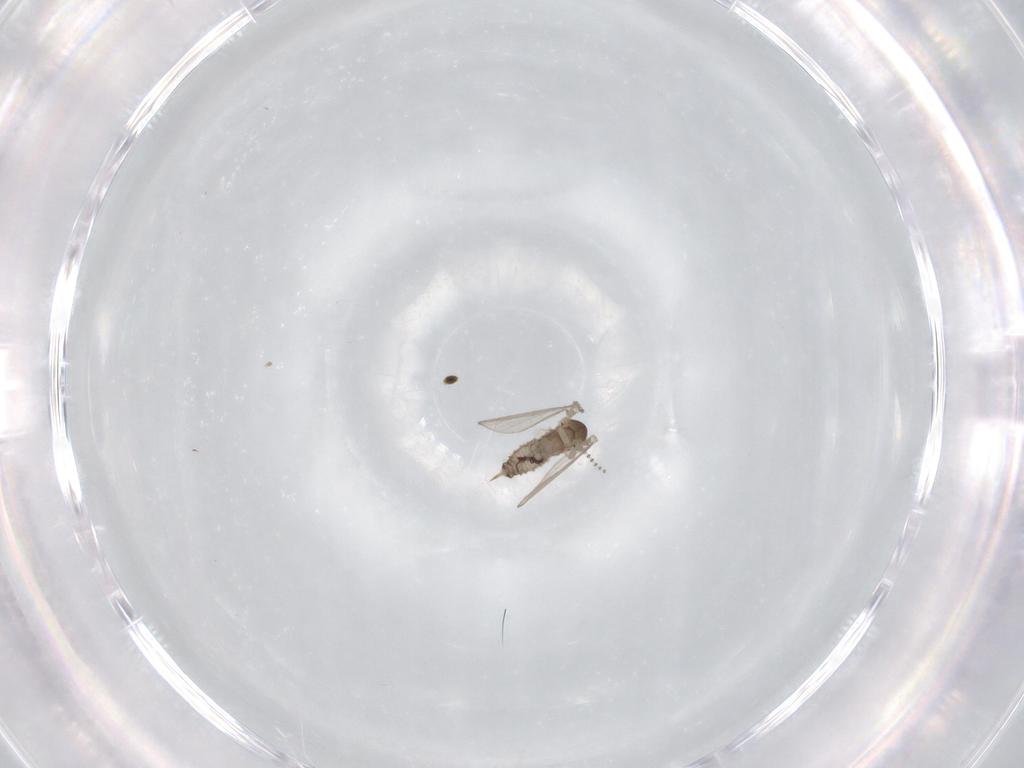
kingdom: Animalia
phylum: Arthropoda
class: Insecta
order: Diptera
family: Psychodidae
